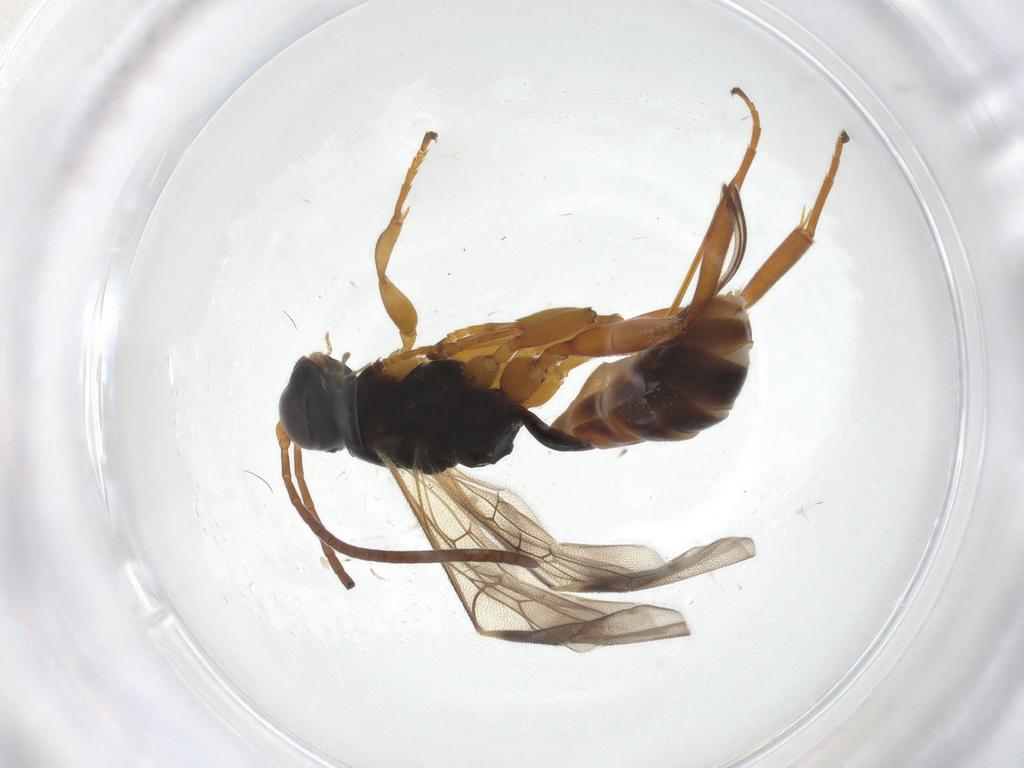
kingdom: Animalia
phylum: Arthropoda
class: Insecta
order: Hymenoptera
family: Ichneumonidae
